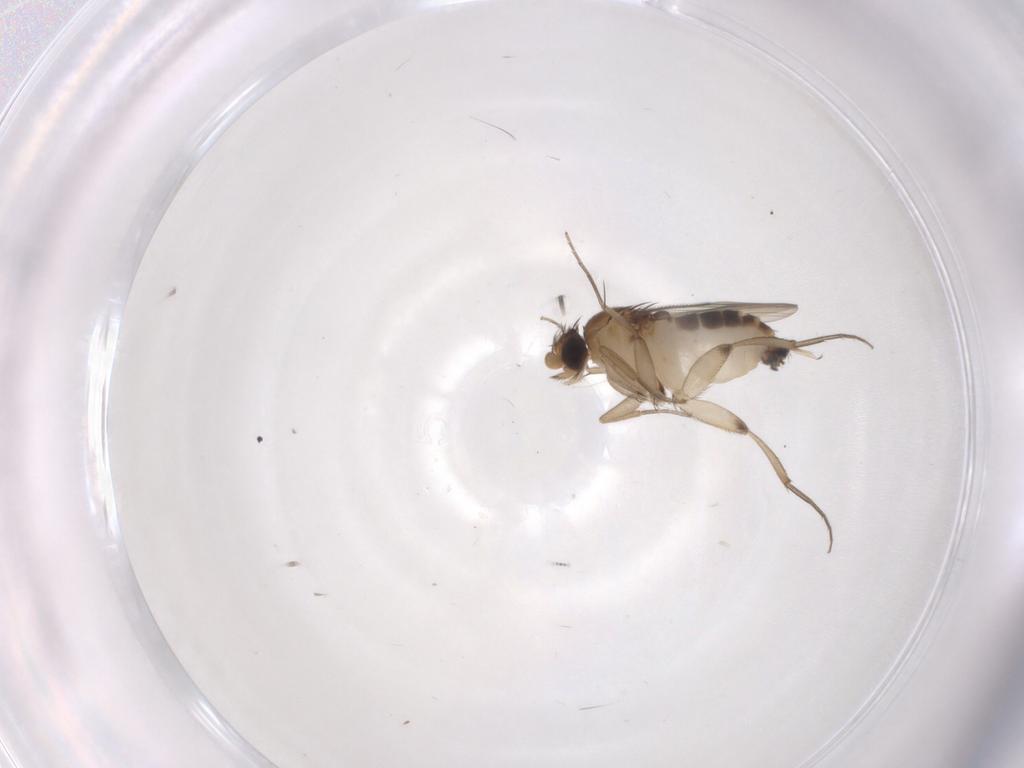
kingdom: Animalia
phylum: Arthropoda
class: Insecta
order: Diptera
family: Phoridae
